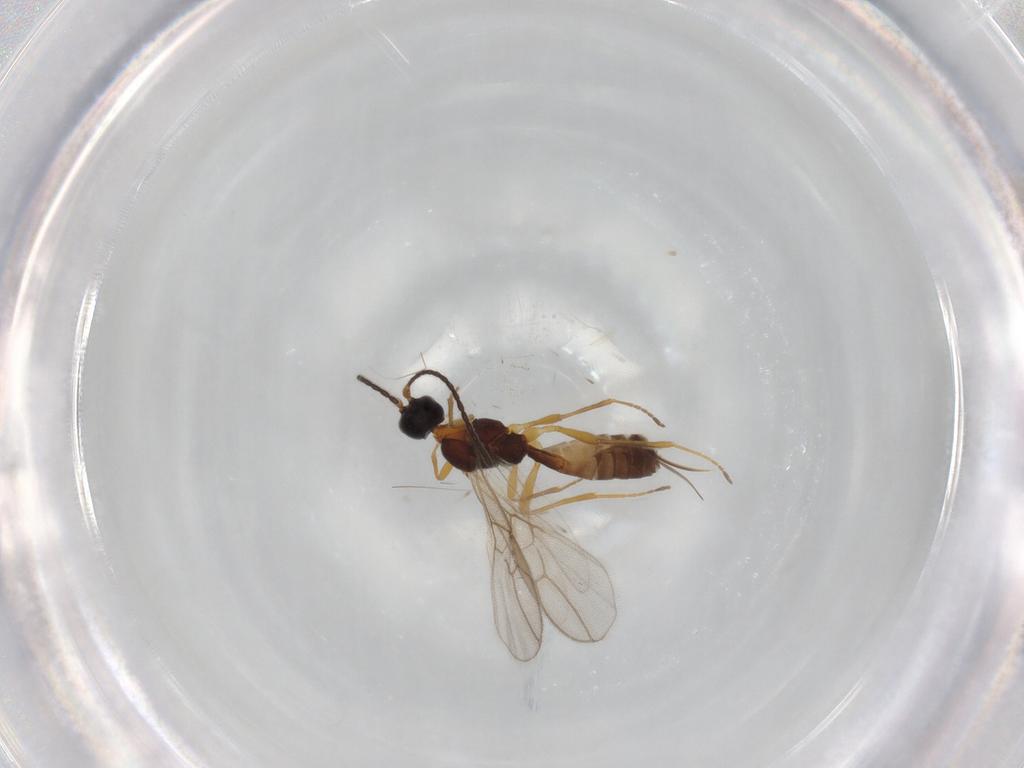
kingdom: Animalia
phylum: Arthropoda
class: Insecta
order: Hymenoptera
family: Braconidae
